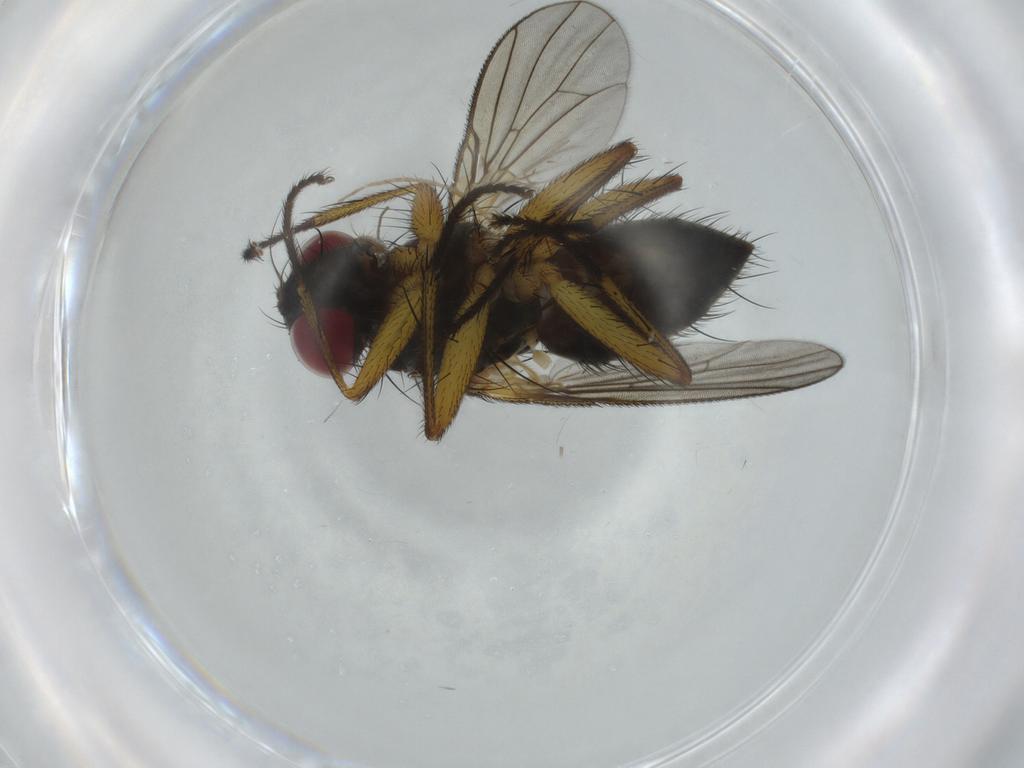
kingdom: Animalia
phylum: Arthropoda
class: Insecta
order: Diptera
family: Muscidae
